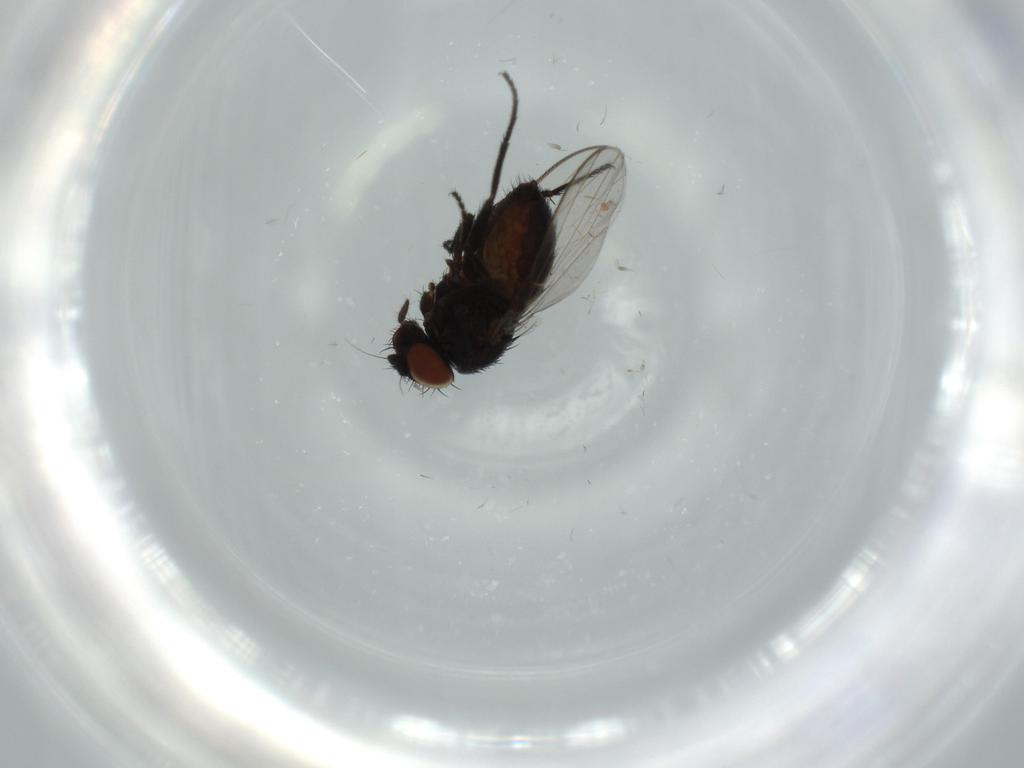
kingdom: Animalia
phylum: Arthropoda
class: Insecta
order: Diptera
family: Milichiidae
